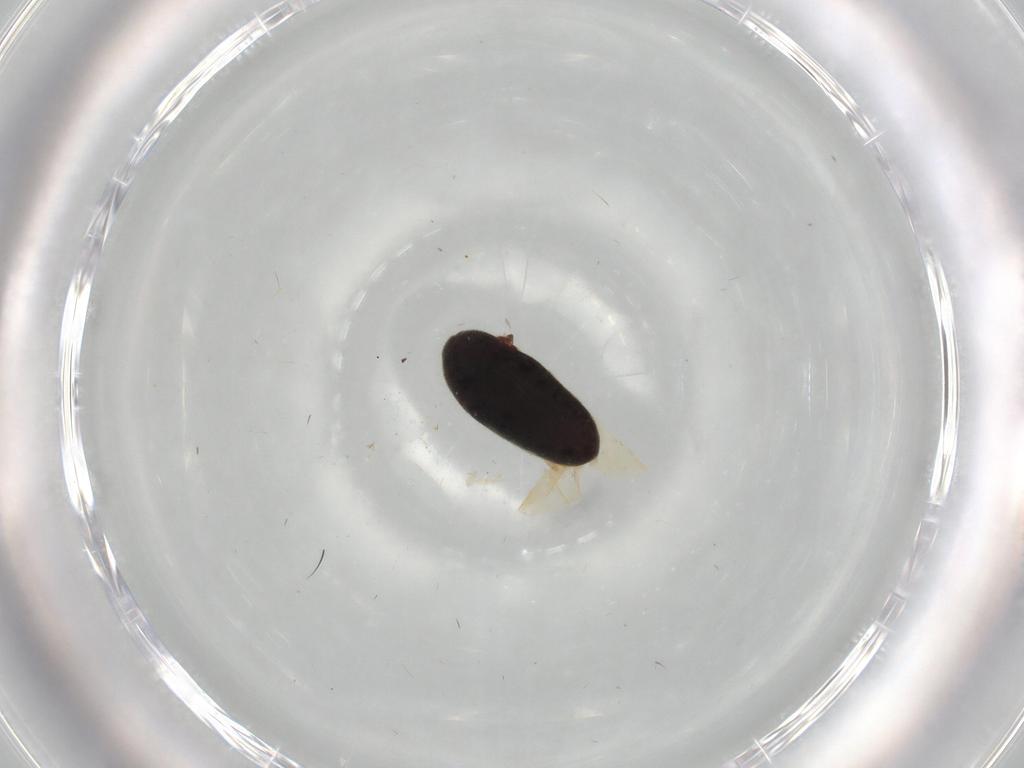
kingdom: Animalia
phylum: Arthropoda
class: Insecta
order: Coleoptera
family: Throscidae
